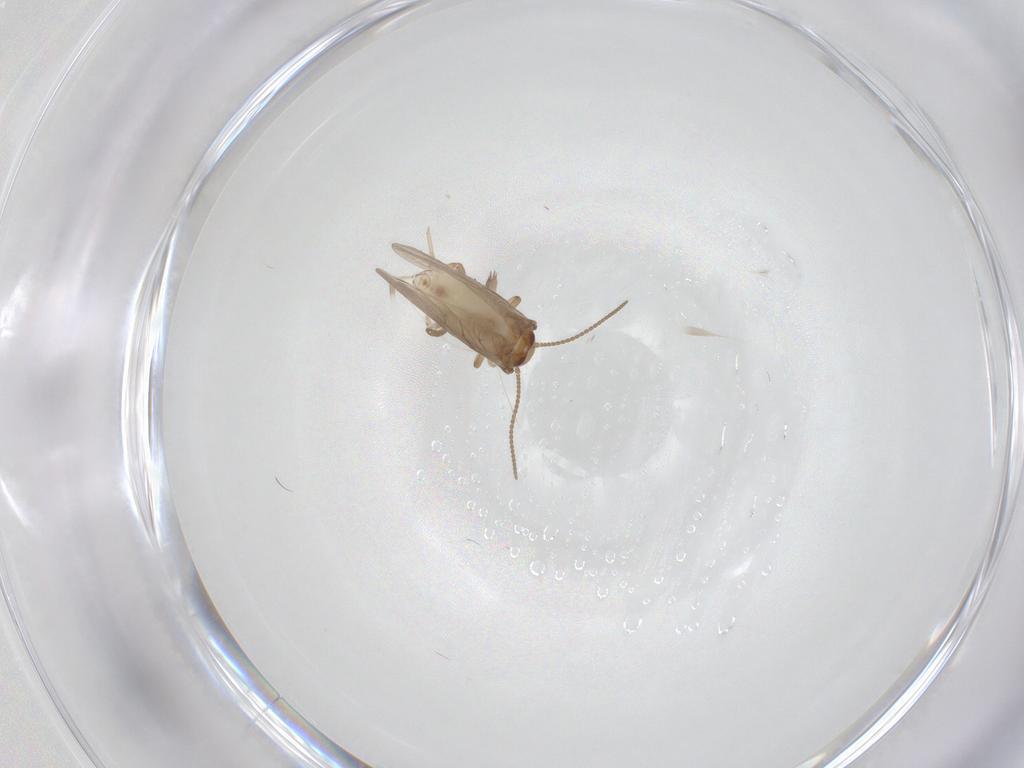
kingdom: Animalia
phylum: Arthropoda
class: Insecta
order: Neuroptera
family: Coniopterygidae
